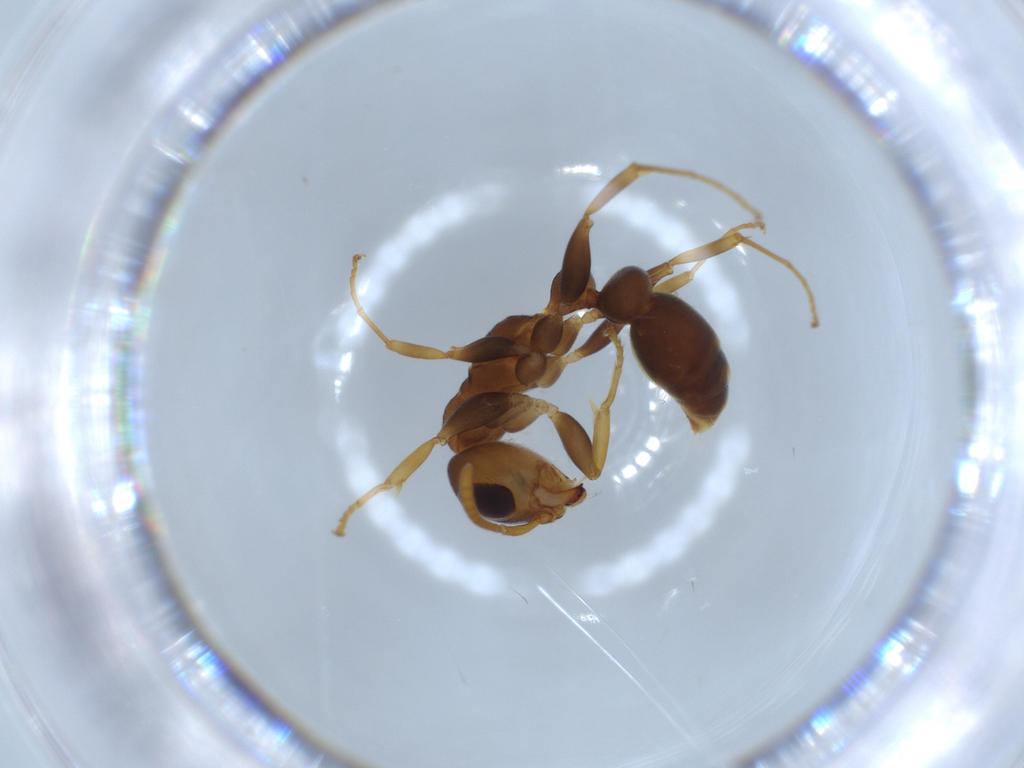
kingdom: Animalia
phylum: Arthropoda
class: Insecta
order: Hymenoptera
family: Formicidae
